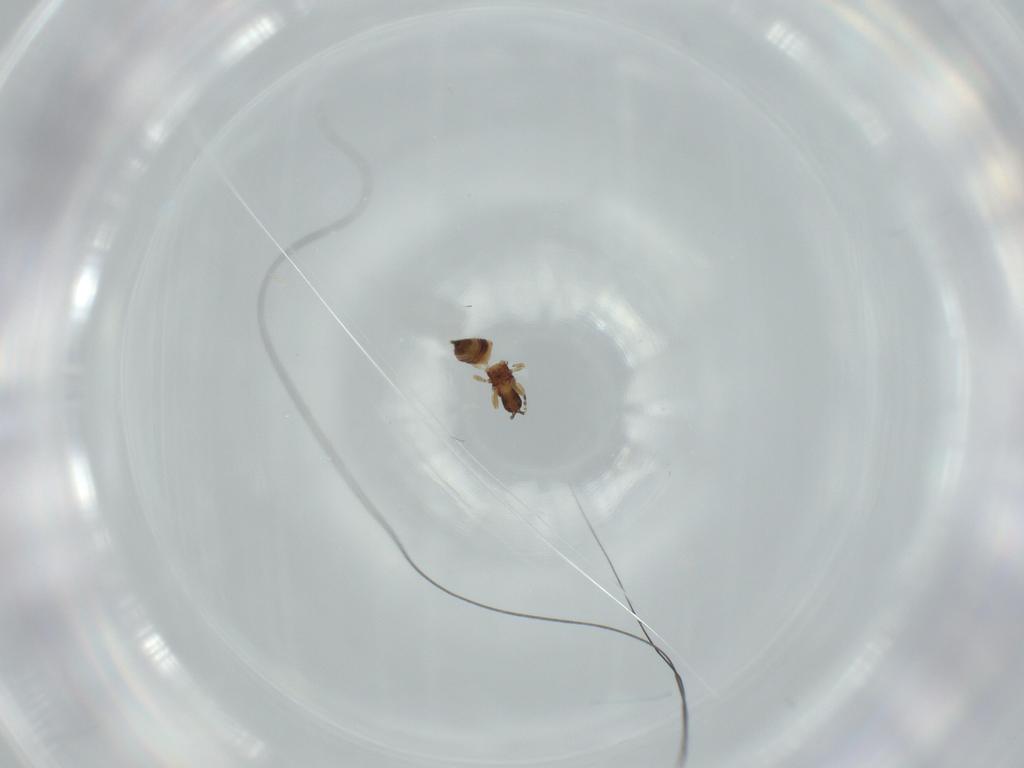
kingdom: Animalia
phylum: Arthropoda
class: Insecta
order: Thysanoptera
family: Phlaeothripidae
